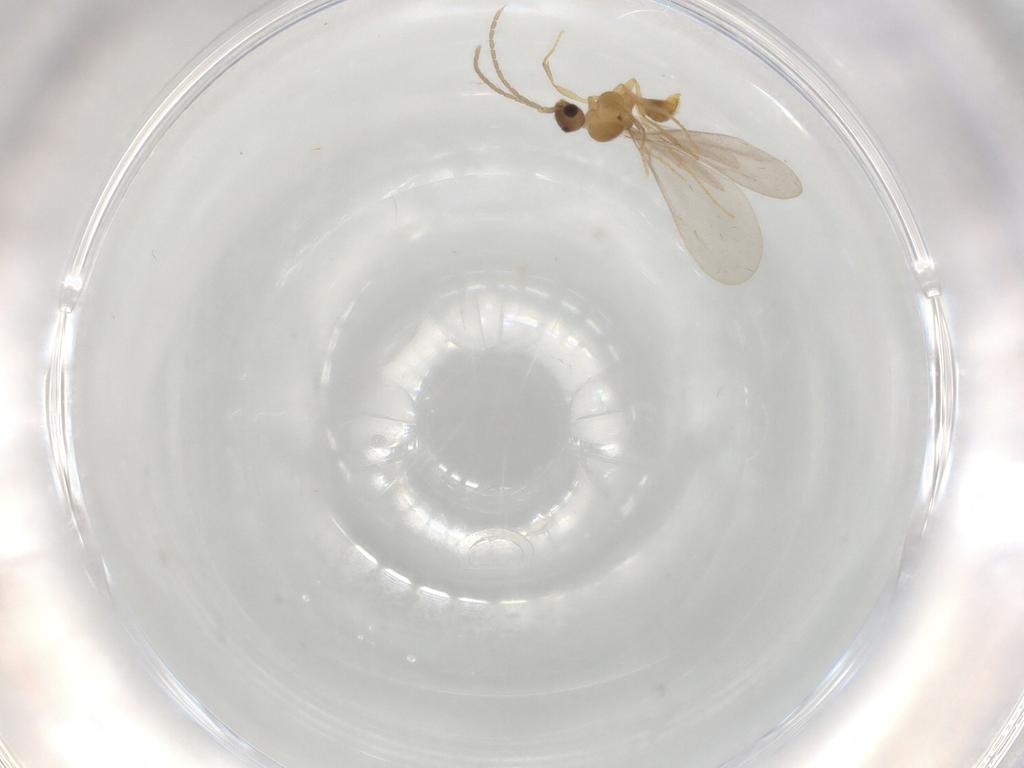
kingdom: Animalia
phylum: Arthropoda
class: Insecta
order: Hymenoptera
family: Formicidae
